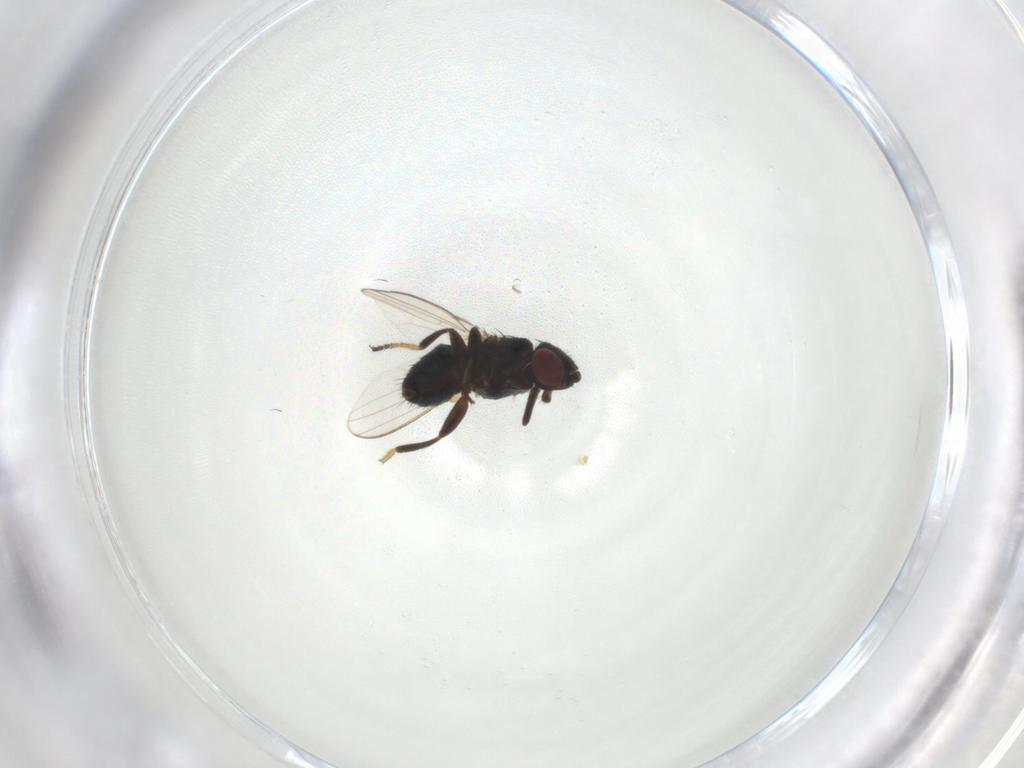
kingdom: Animalia
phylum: Arthropoda
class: Insecta
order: Diptera
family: Milichiidae
